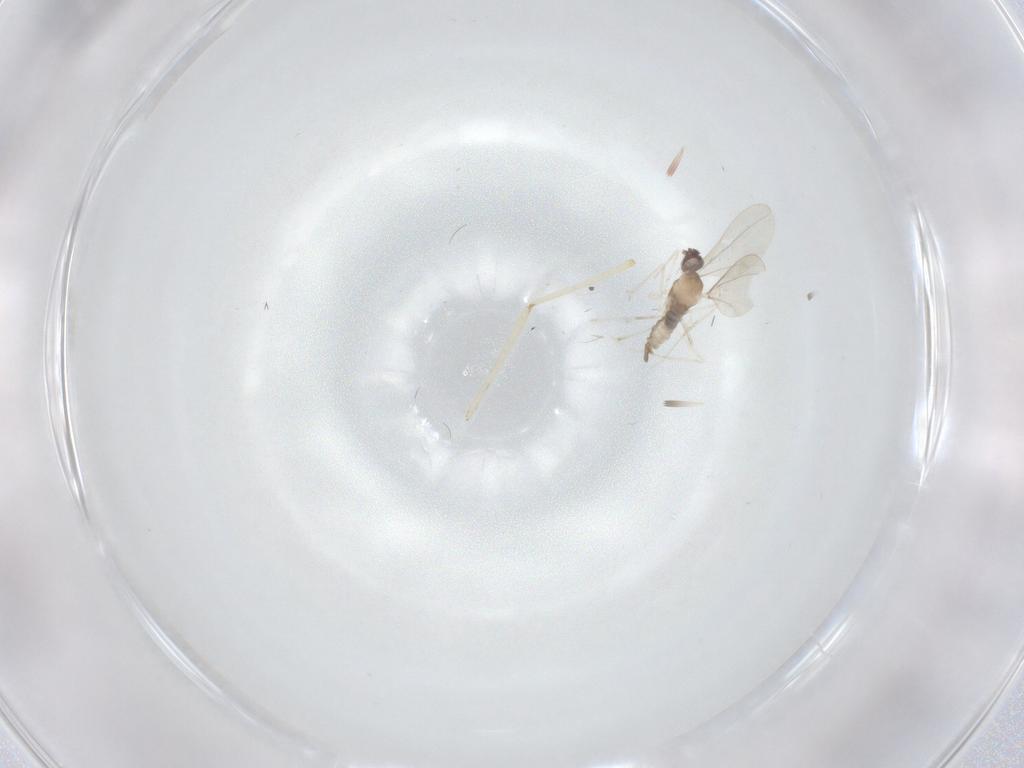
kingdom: Animalia
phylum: Arthropoda
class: Insecta
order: Diptera
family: Cecidomyiidae
